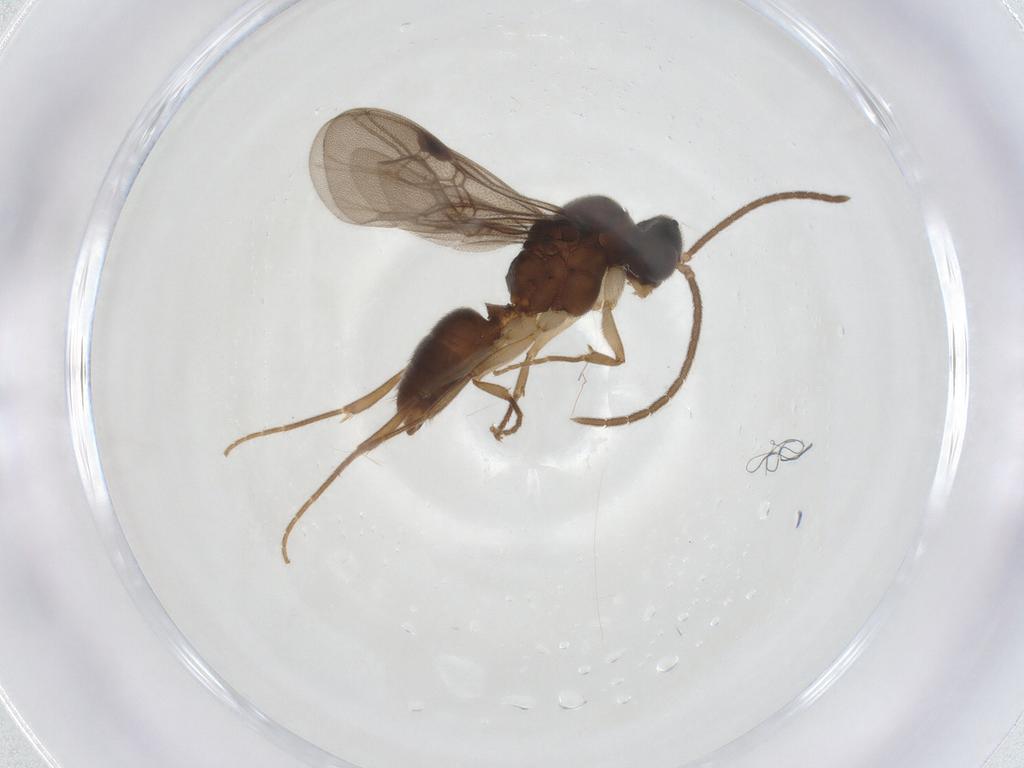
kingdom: Animalia
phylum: Arthropoda
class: Insecta
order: Hymenoptera
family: Formicidae
